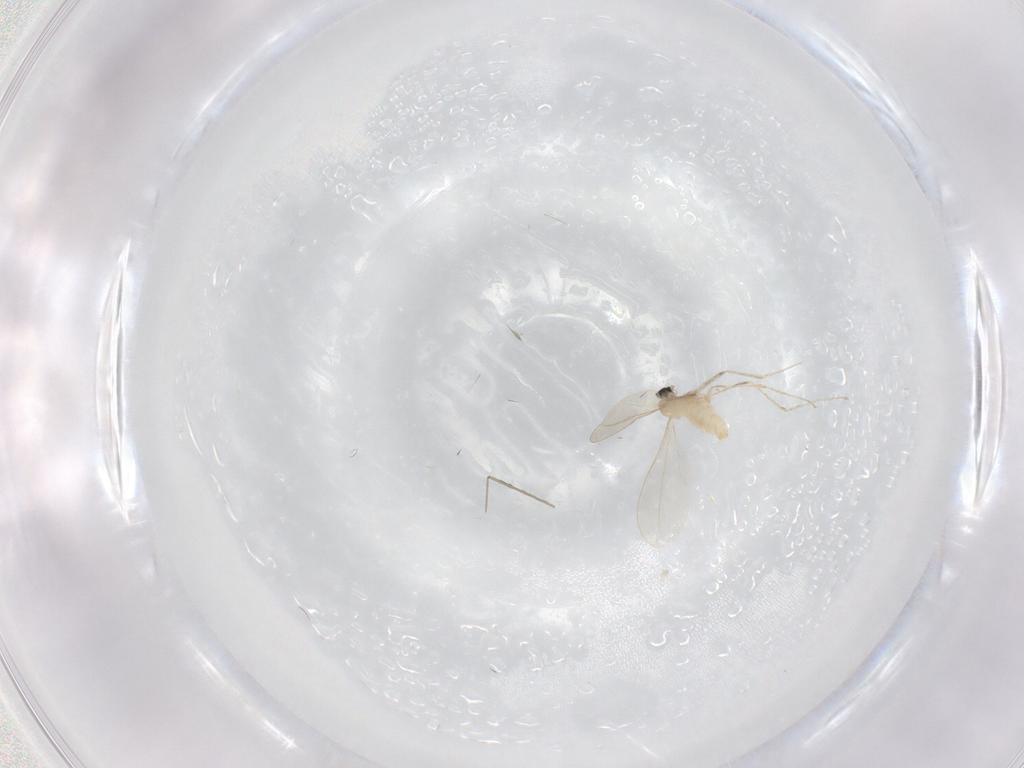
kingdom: Animalia
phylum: Arthropoda
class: Insecta
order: Diptera
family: Cecidomyiidae
